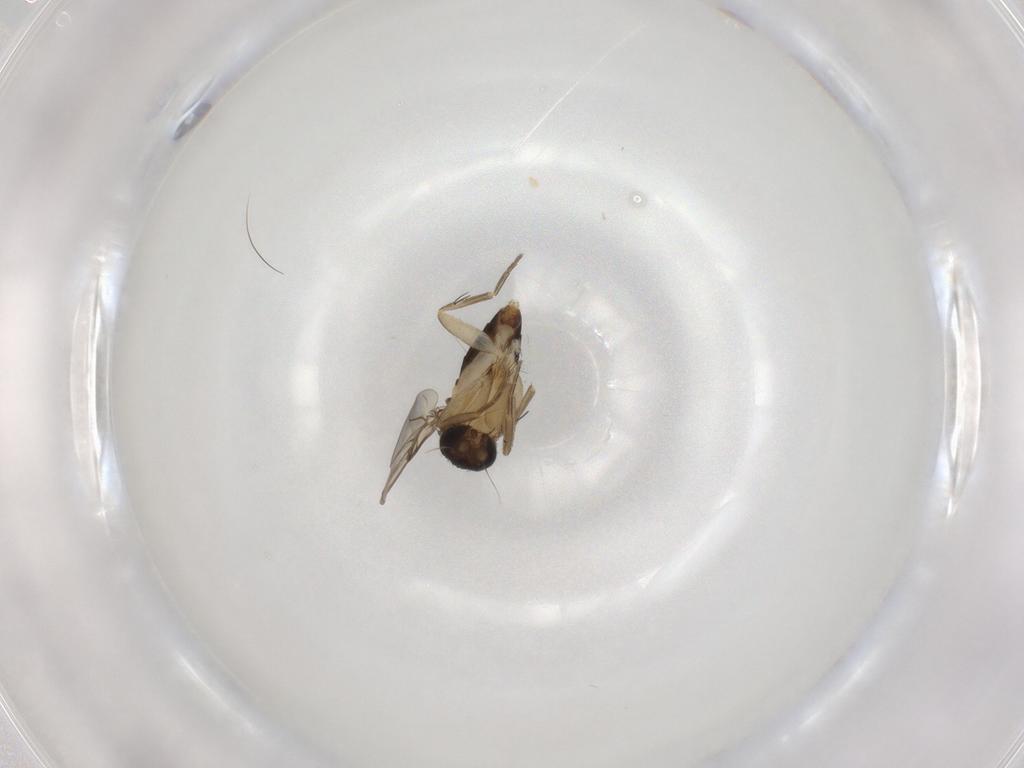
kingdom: Animalia
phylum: Arthropoda
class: Insecta
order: Diptera
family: Phoridae
